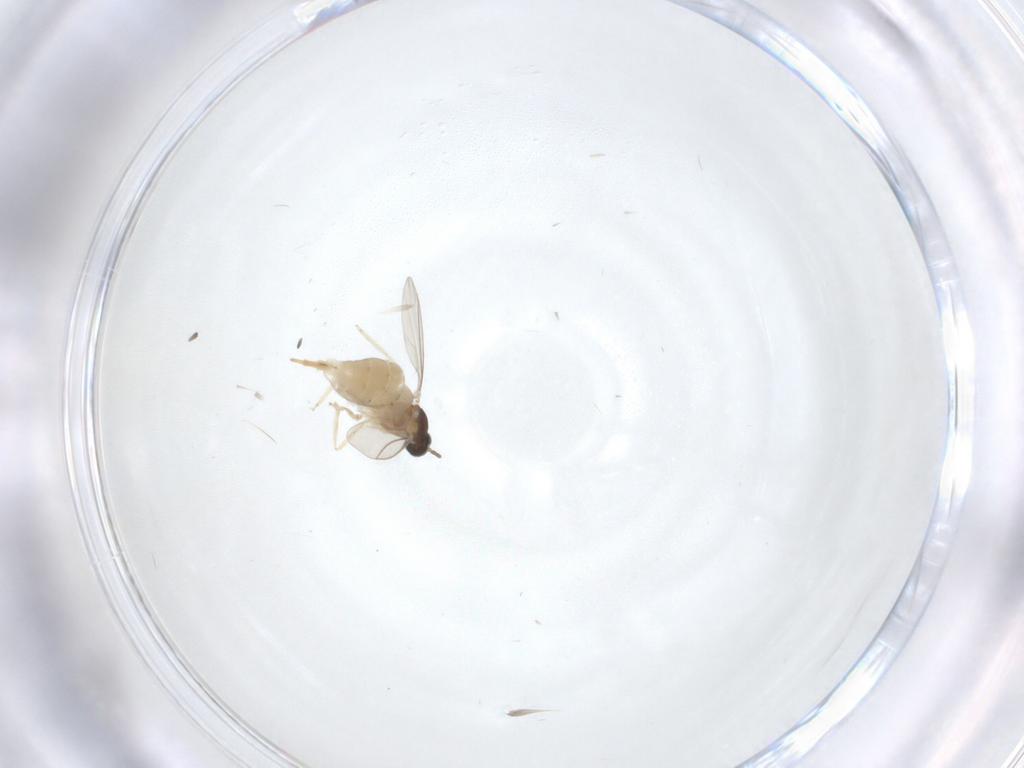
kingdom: Animalia
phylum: Arthropoda
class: Insecta
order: Diptera
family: Cecidomyiidae
